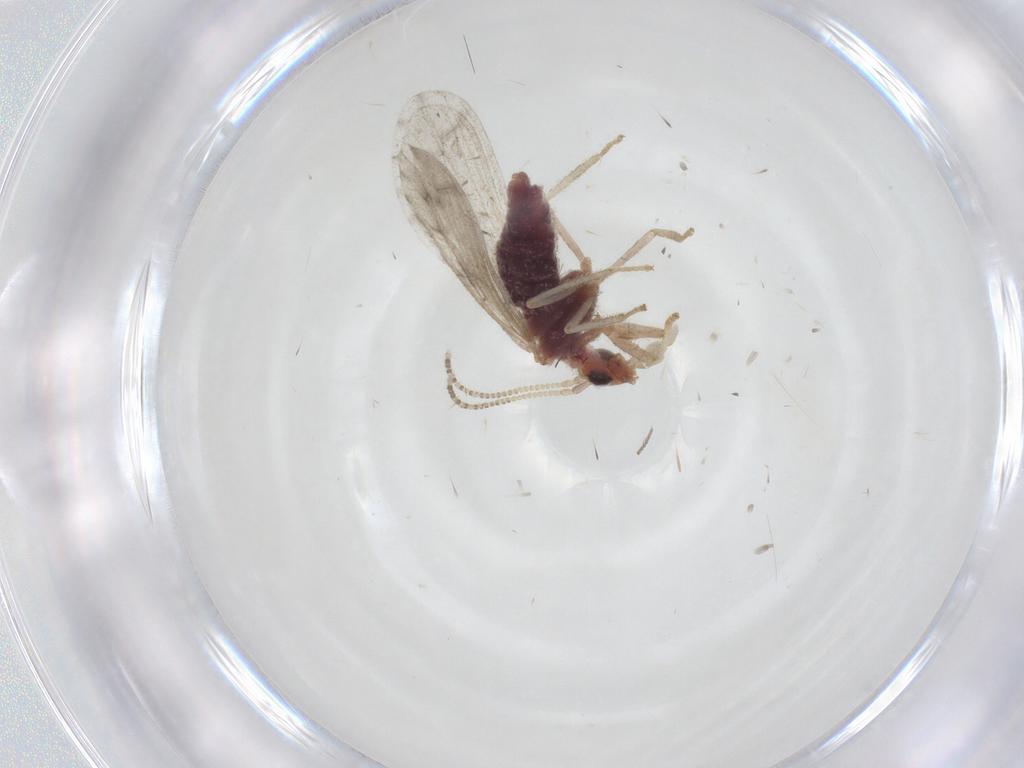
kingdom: Animalia
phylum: Arthropoda
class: Insecta
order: Neuroptera
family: Coniopterygidae
